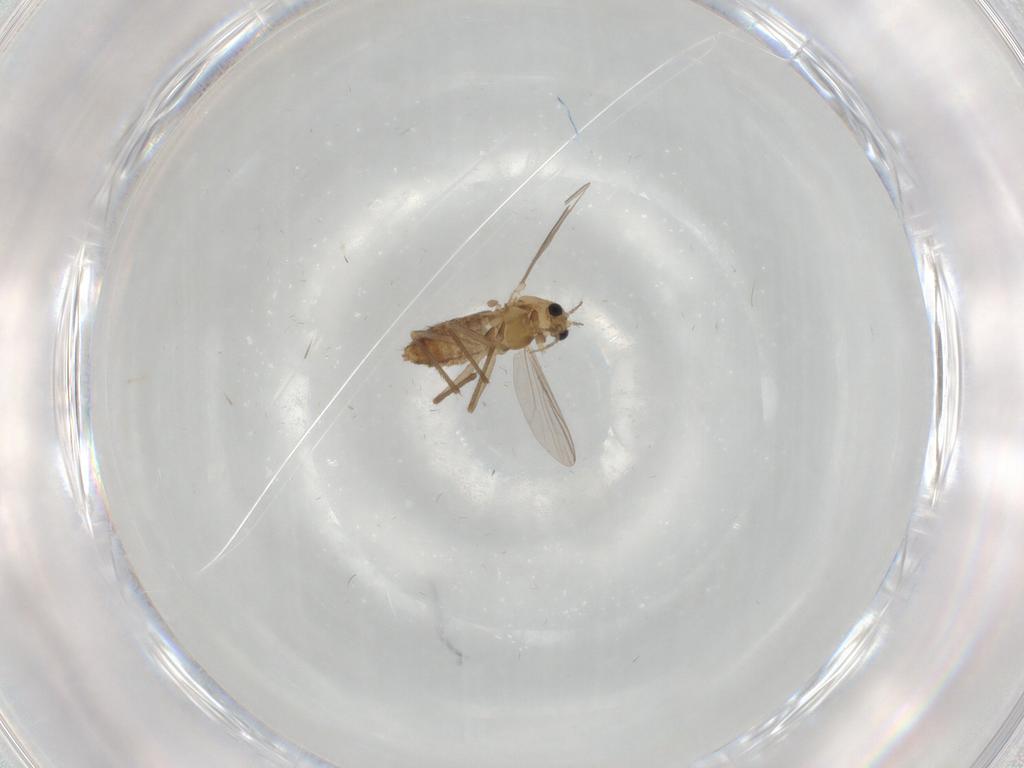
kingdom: Animalia
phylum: Arthropoda
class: Insecta
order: Diptera
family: Chironomidae
